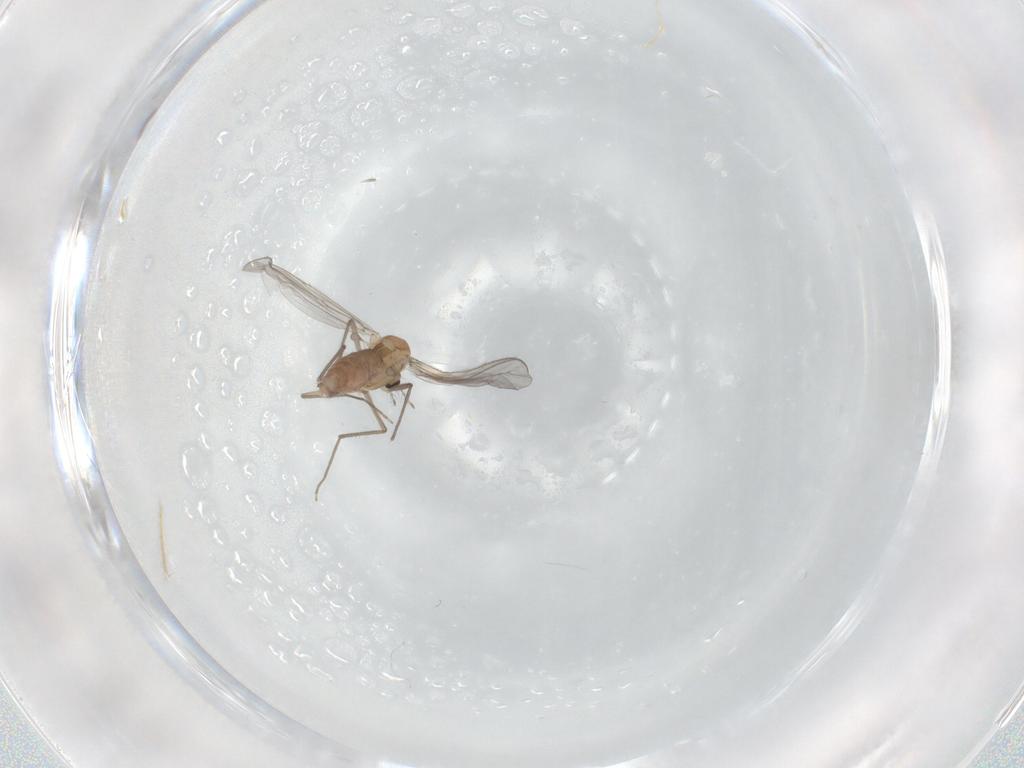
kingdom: Animalia
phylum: Arthropoda
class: Insecta
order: Diptera
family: Chironomidae
